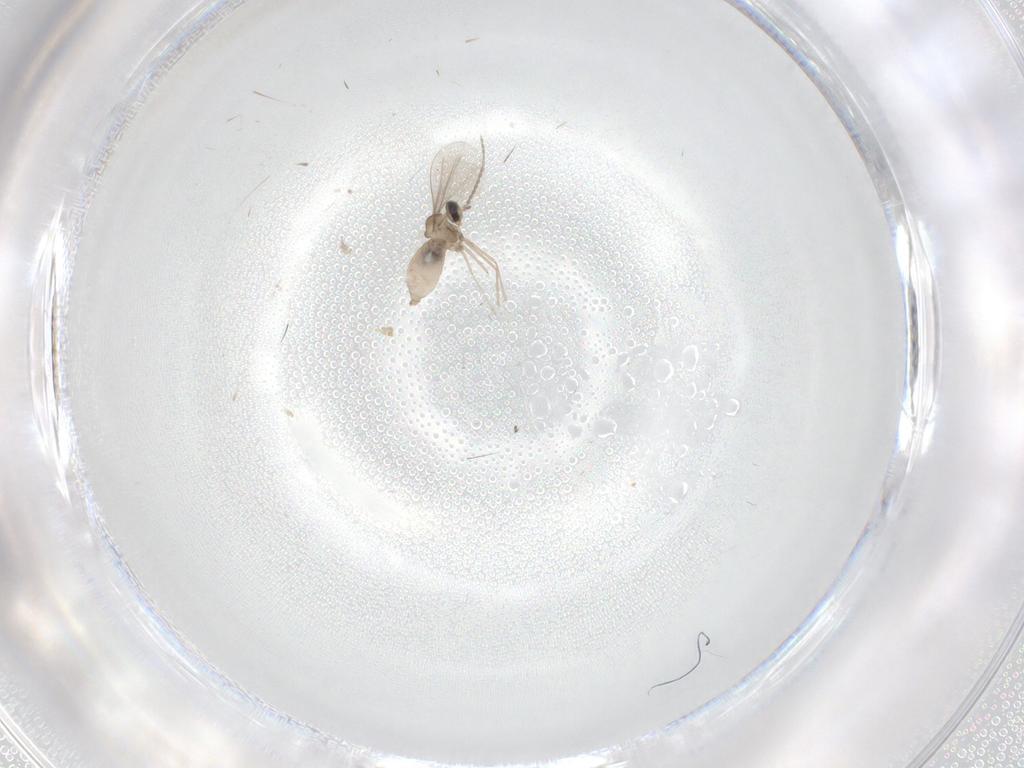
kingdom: Animalia
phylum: Arthropoda
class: Insecta
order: Diptera
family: Cecidomyiidae
